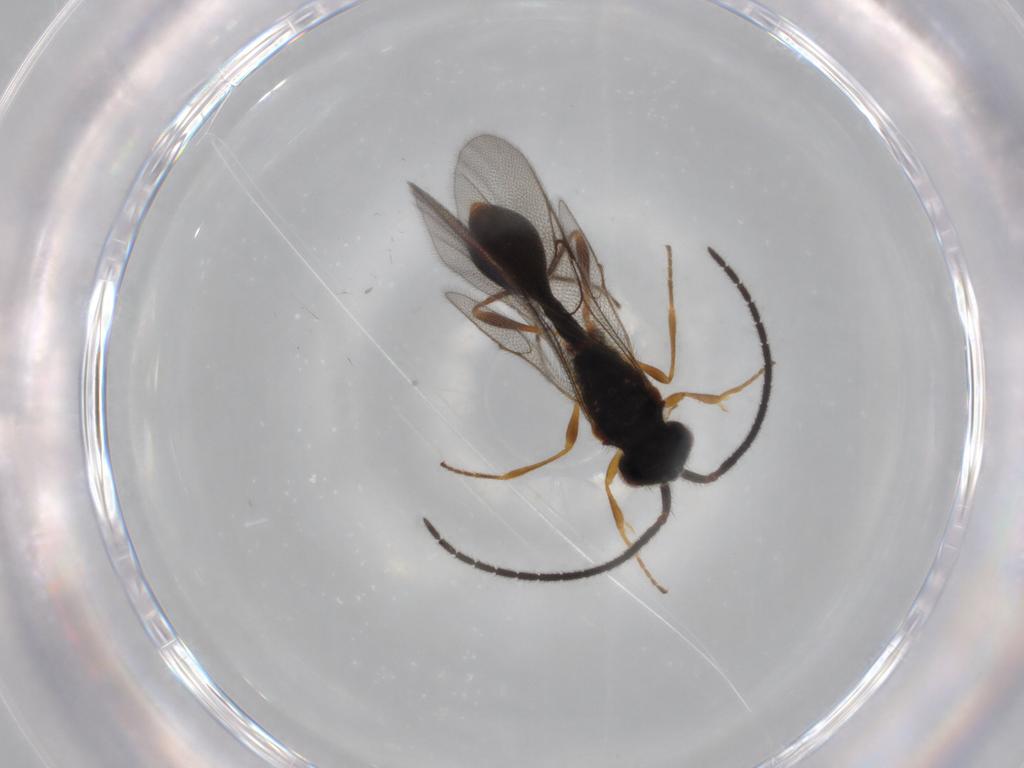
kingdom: Animalia
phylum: Arthropoda
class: Insecta
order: Hymenoptera
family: Diapriidae
